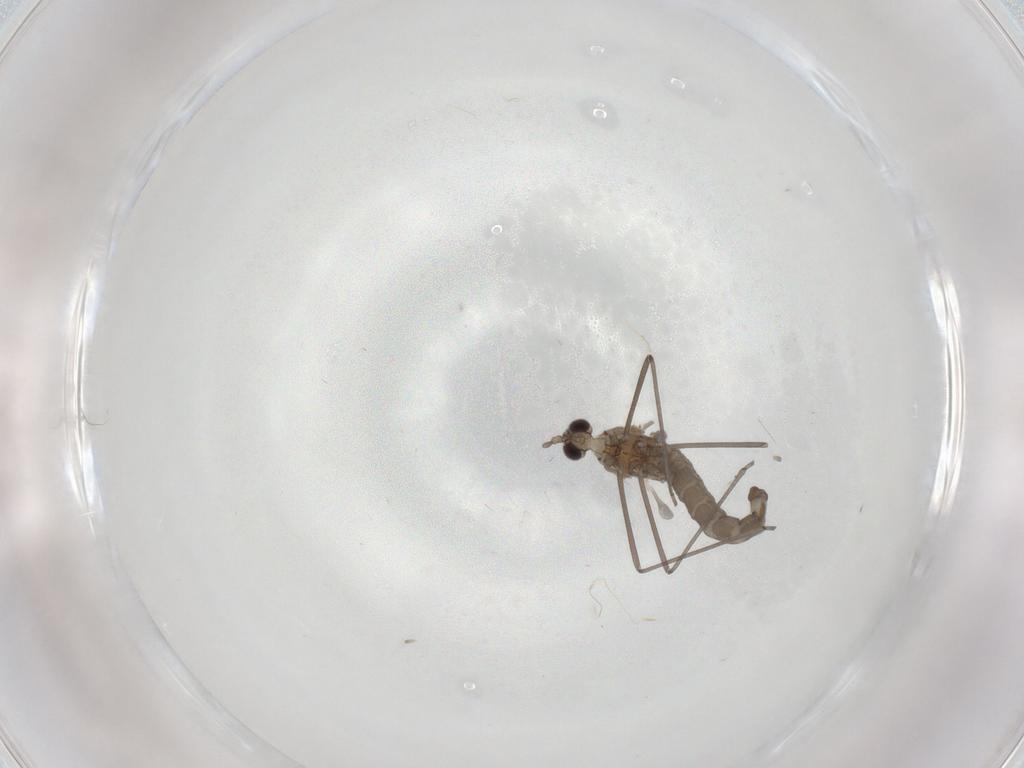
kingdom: Animalia
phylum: Arthropoda
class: Insecta
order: Diptera
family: Cecidomyiidae
